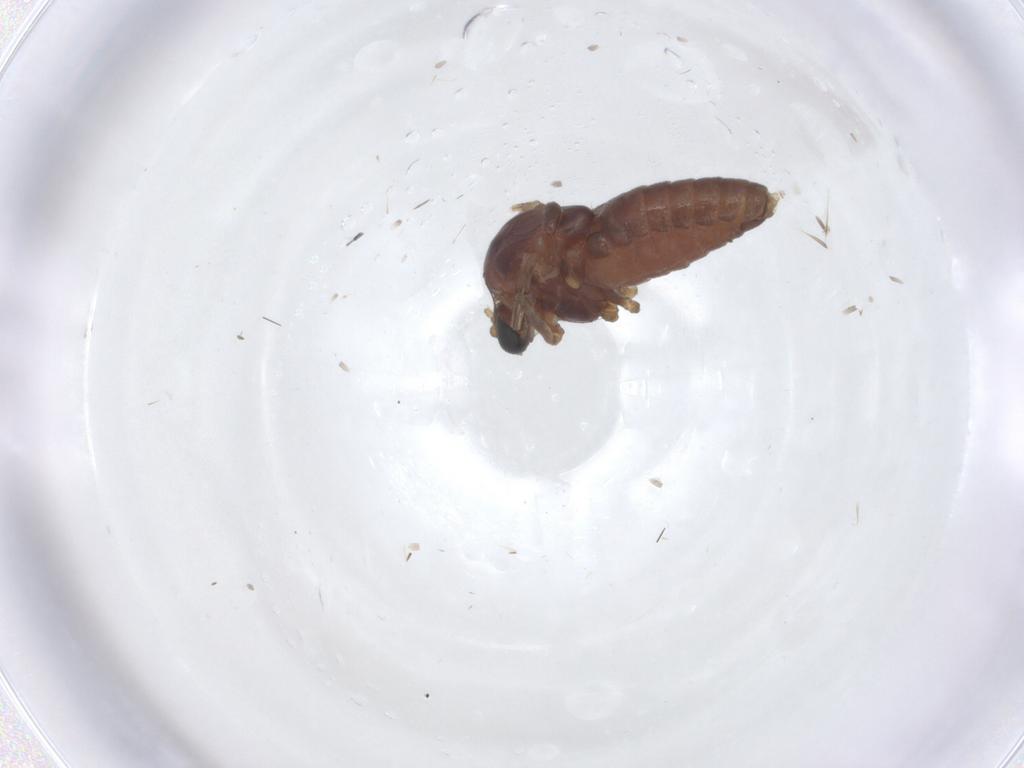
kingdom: Animalia
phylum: Arthropoda
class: Insecta
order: Diptera
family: Chironomidae
